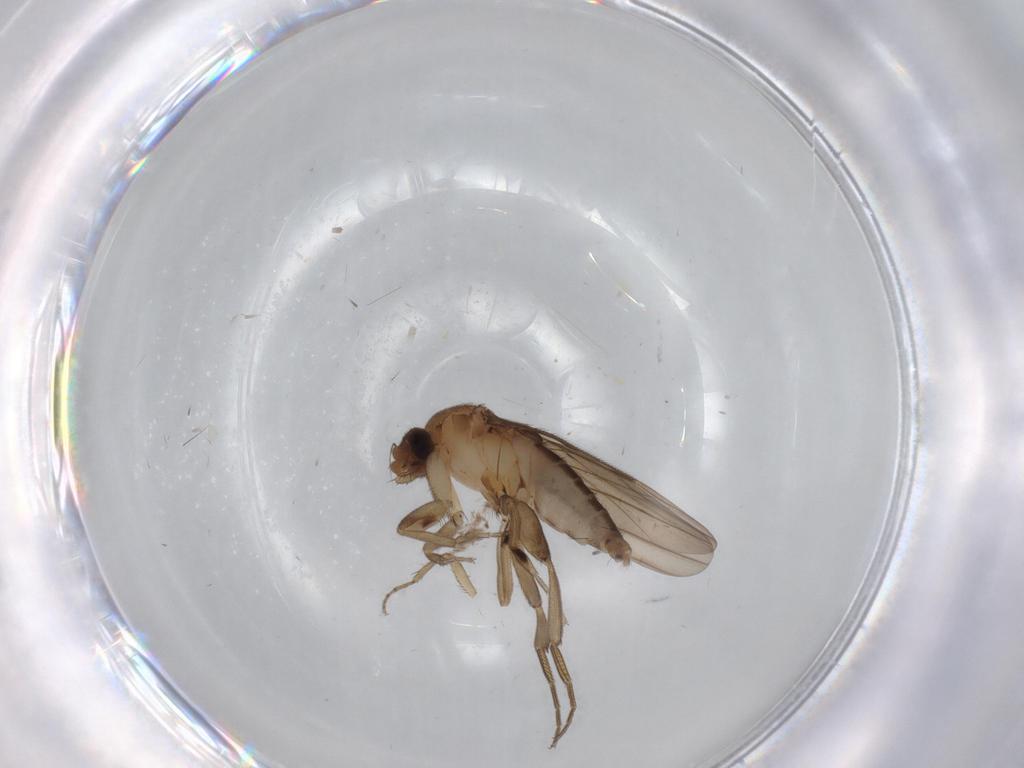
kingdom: Animalia
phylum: Arthropoda
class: Insecta
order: Diptera
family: Phoridae
